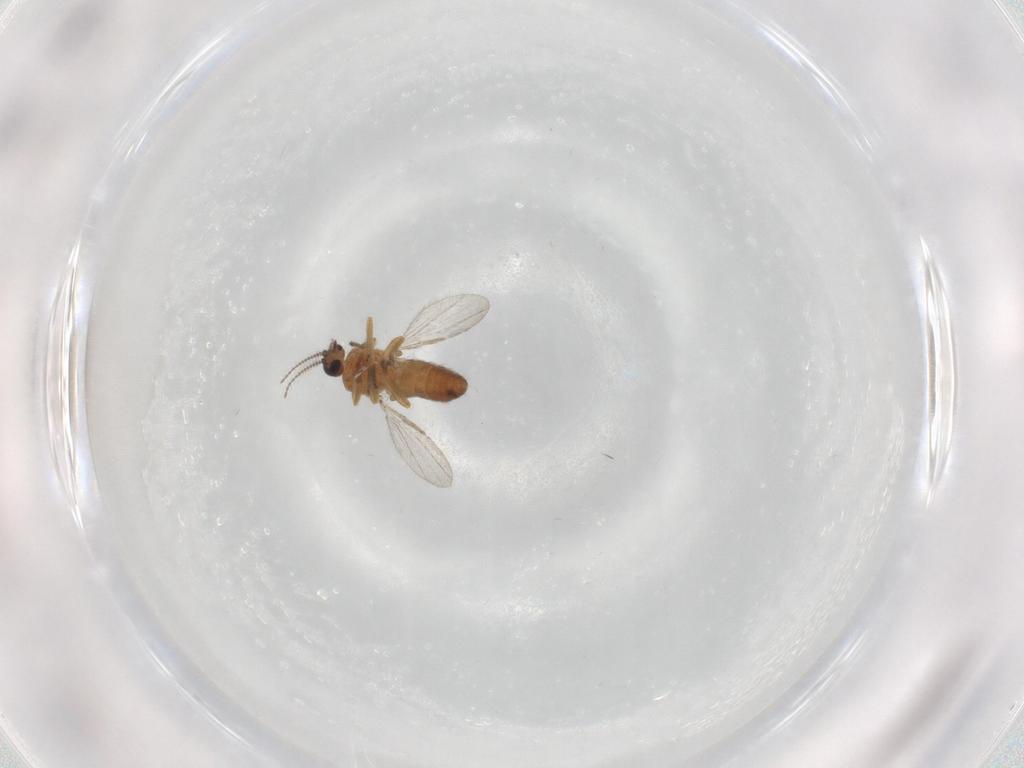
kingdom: Animalia
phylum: Arthropoda
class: Insecta
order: Diptera
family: Ceratopogonidae
